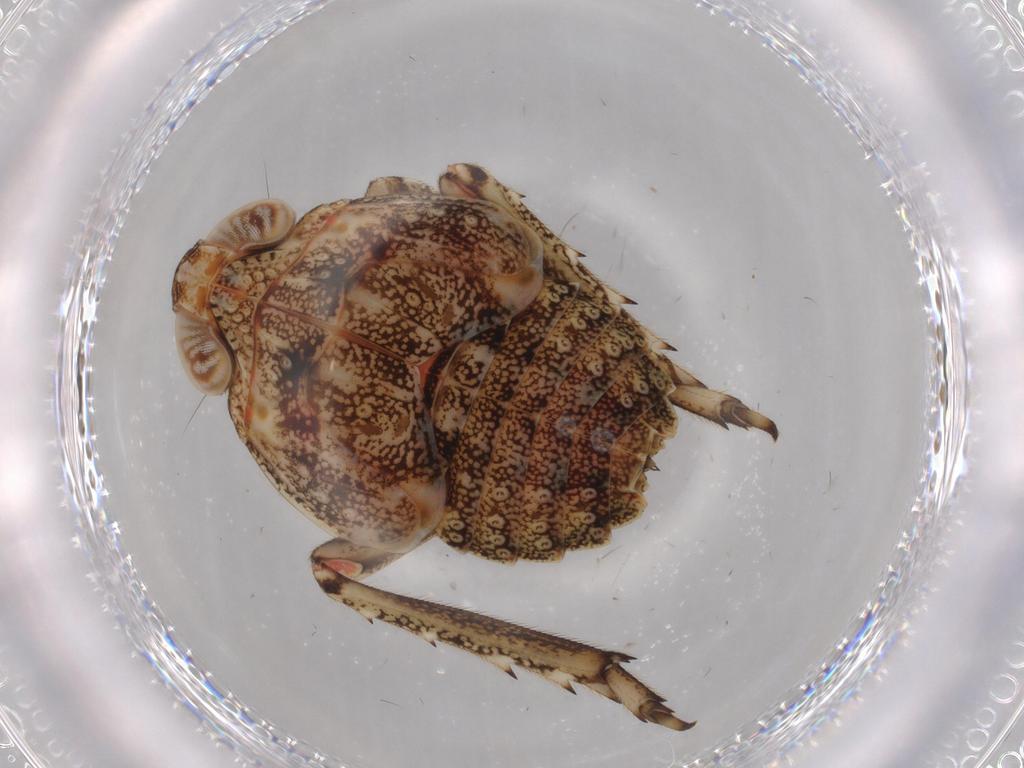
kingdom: Animalia
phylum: Arthropoda
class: Insecta
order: Hemiptera
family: Issidae
